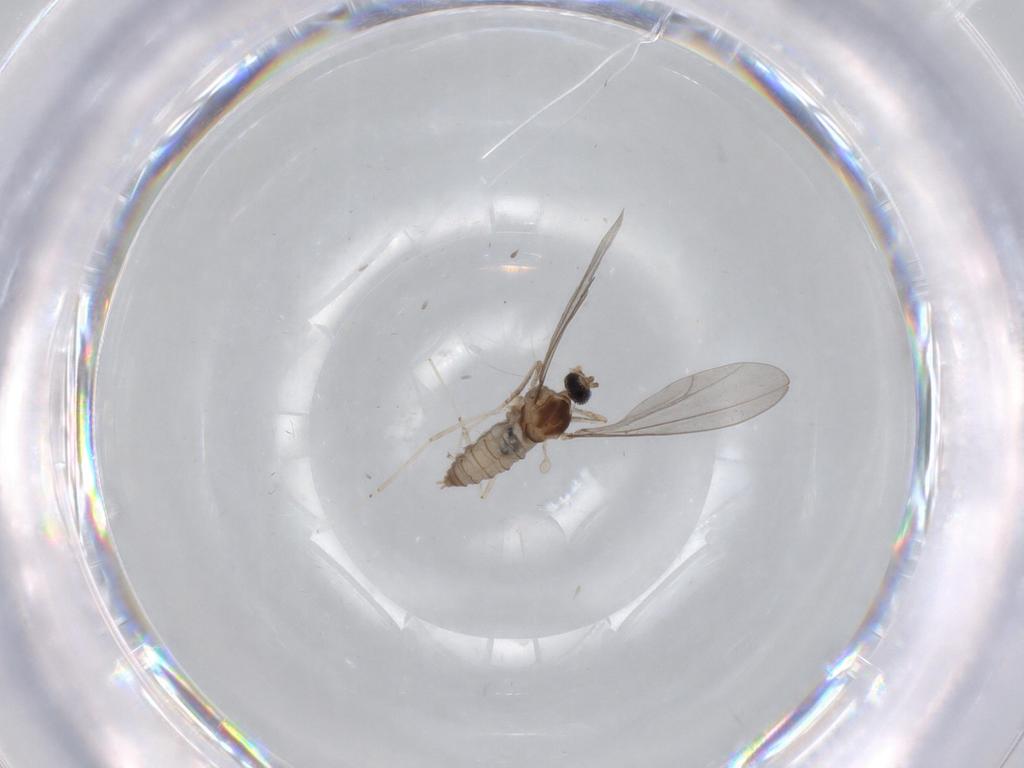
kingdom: Animalia
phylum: Arthropoda
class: Insecta
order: Diptera
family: Cecidomyiidae
